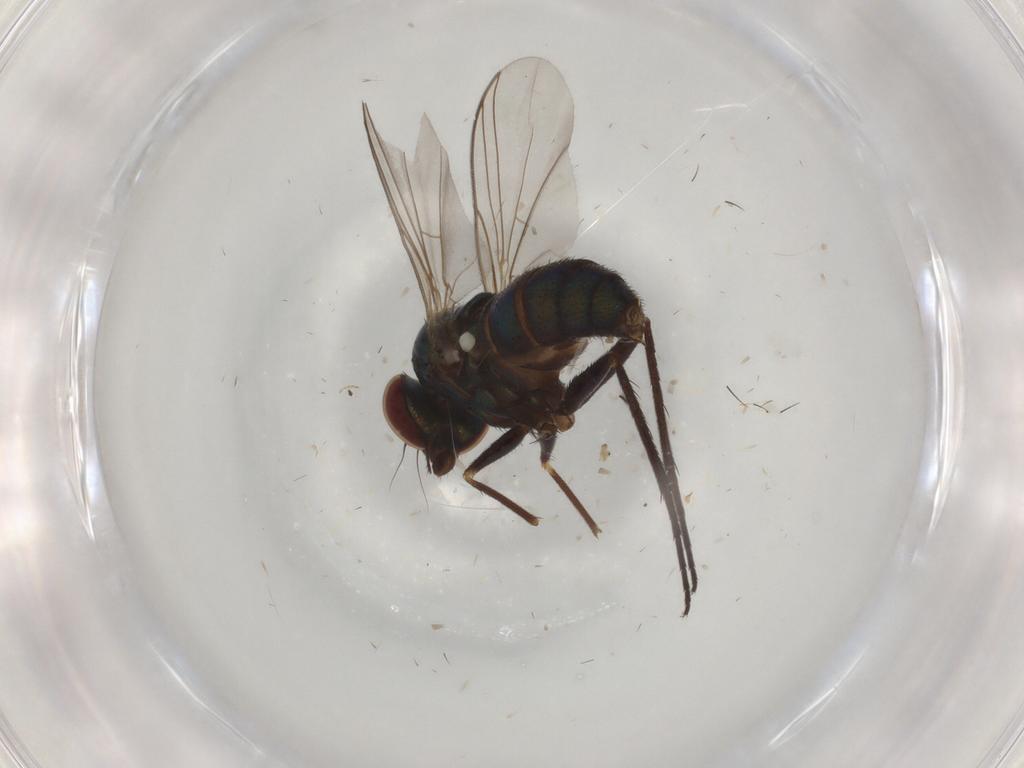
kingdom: Animalia
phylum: Arthropoda
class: Insecta
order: Diptera
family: Dolichopodidae
